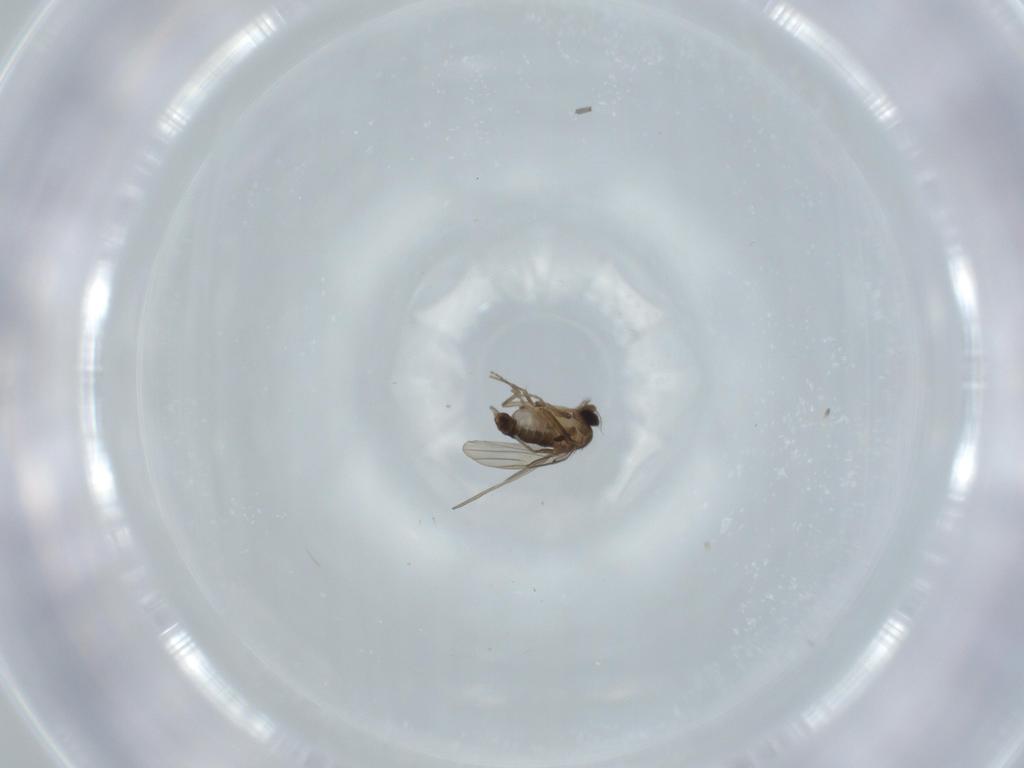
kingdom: Animalia
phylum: Arthropoda
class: Insecta
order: Diptera
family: Phoridae
